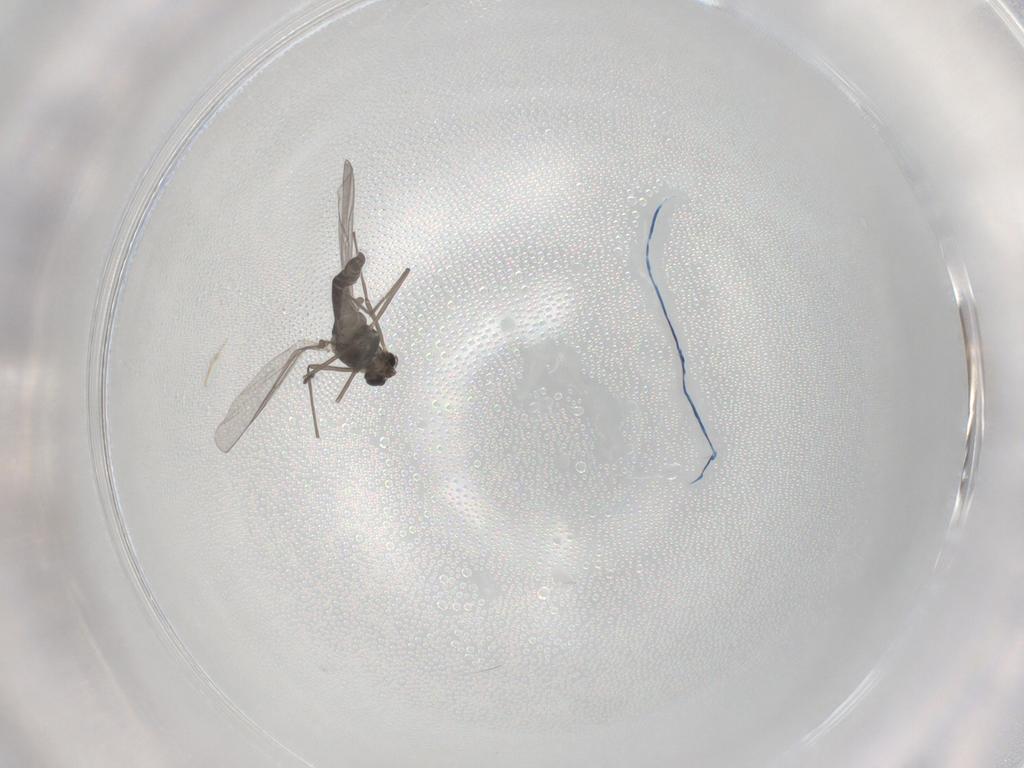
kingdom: Animalia
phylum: Arthropoda
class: Insecta
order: Diptera
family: Chironomidae
